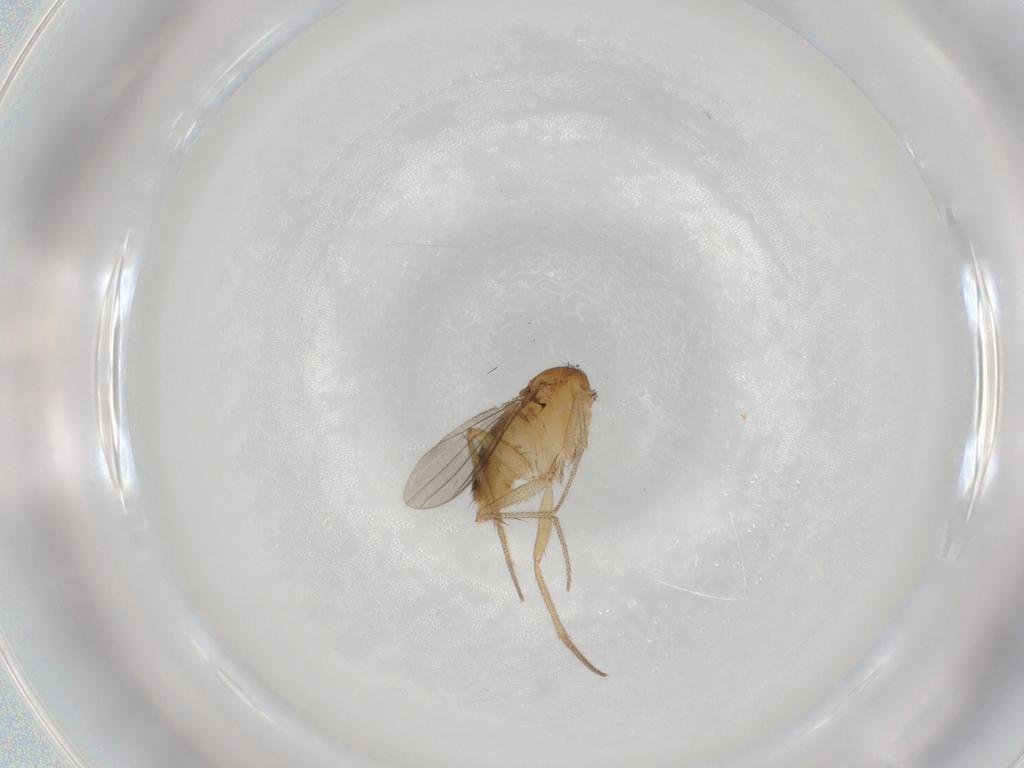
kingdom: Animalia
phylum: Arthropoda
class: Insecta
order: Diptera
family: Dolichopodidae
